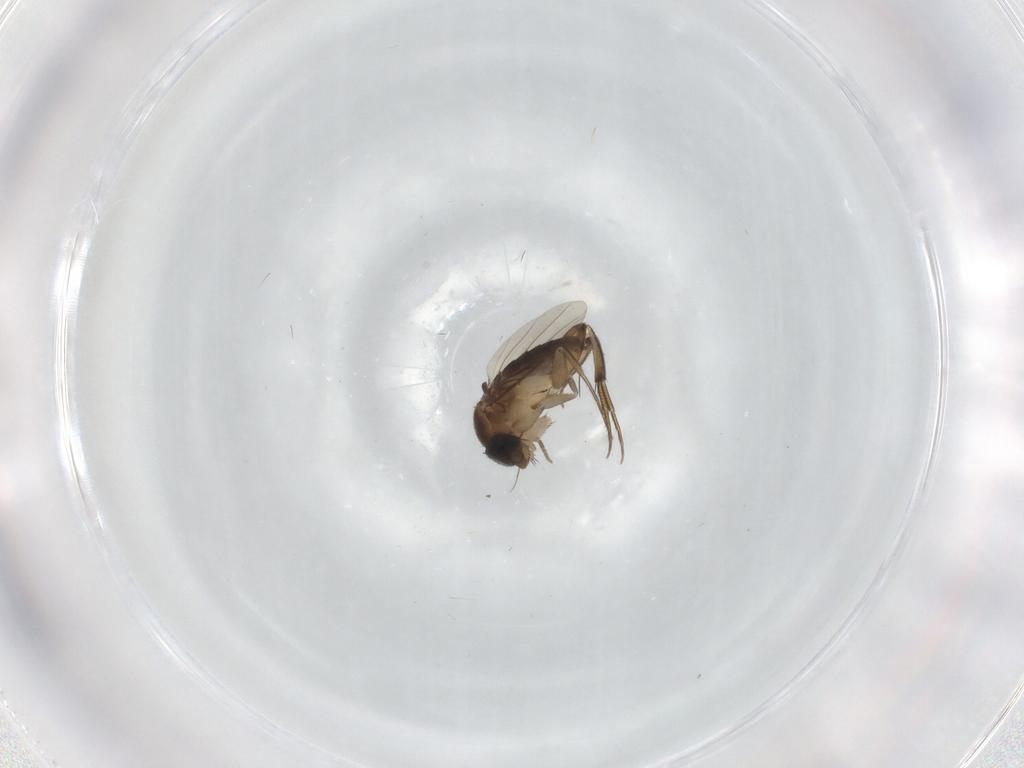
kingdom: Animalia
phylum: Arthropoda
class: Insecta
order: Diptera
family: Phoridae
